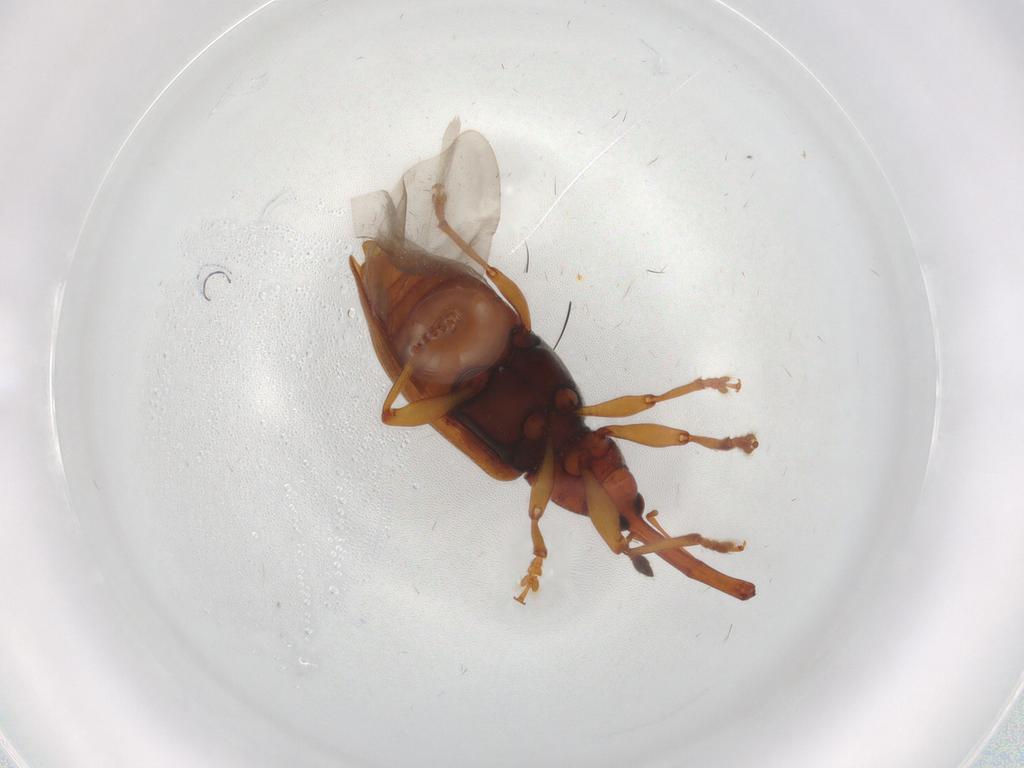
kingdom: Animalia
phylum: Arthropoda
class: Insecta
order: Coleoptera
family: Curculionidae
